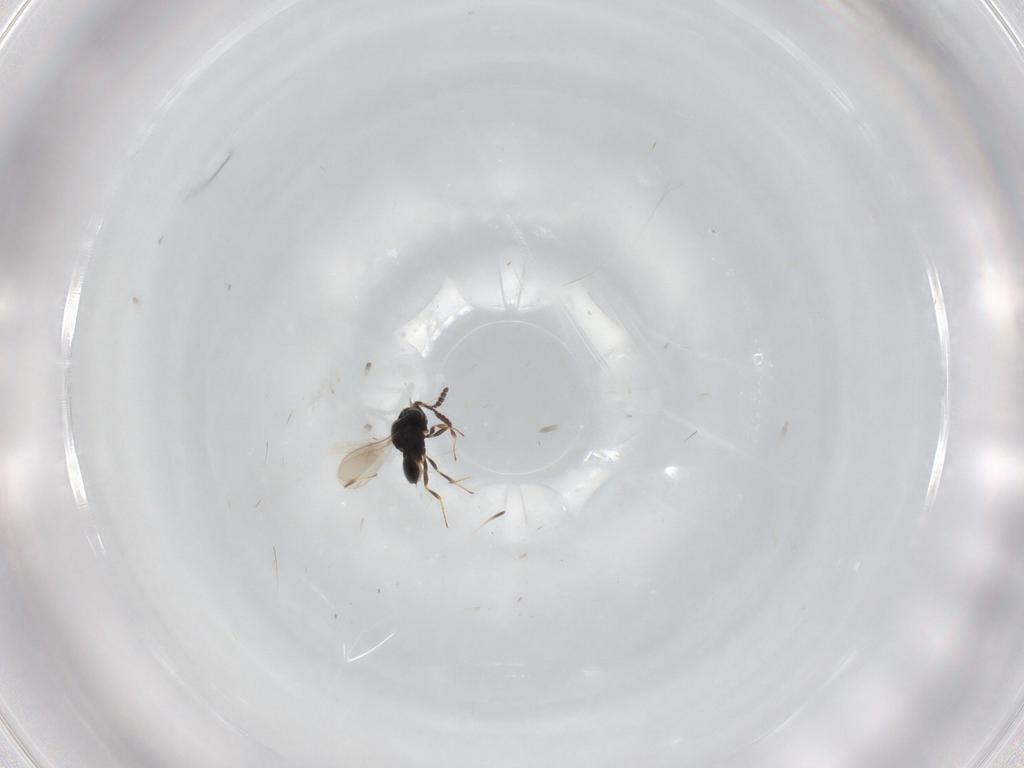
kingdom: Animalia
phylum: Arthropoda
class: Insecta
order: Hymenoptera
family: Scelionidae
